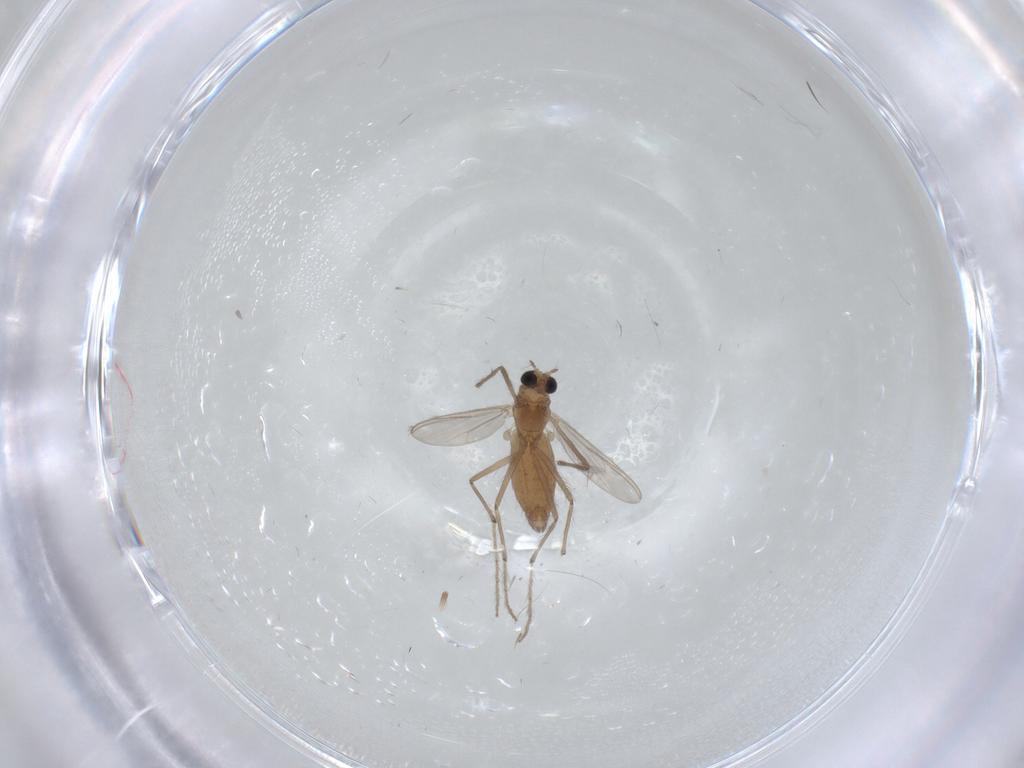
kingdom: Animalia
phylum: Arthropoda
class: Insecta
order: Diptera
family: Chironomidae
